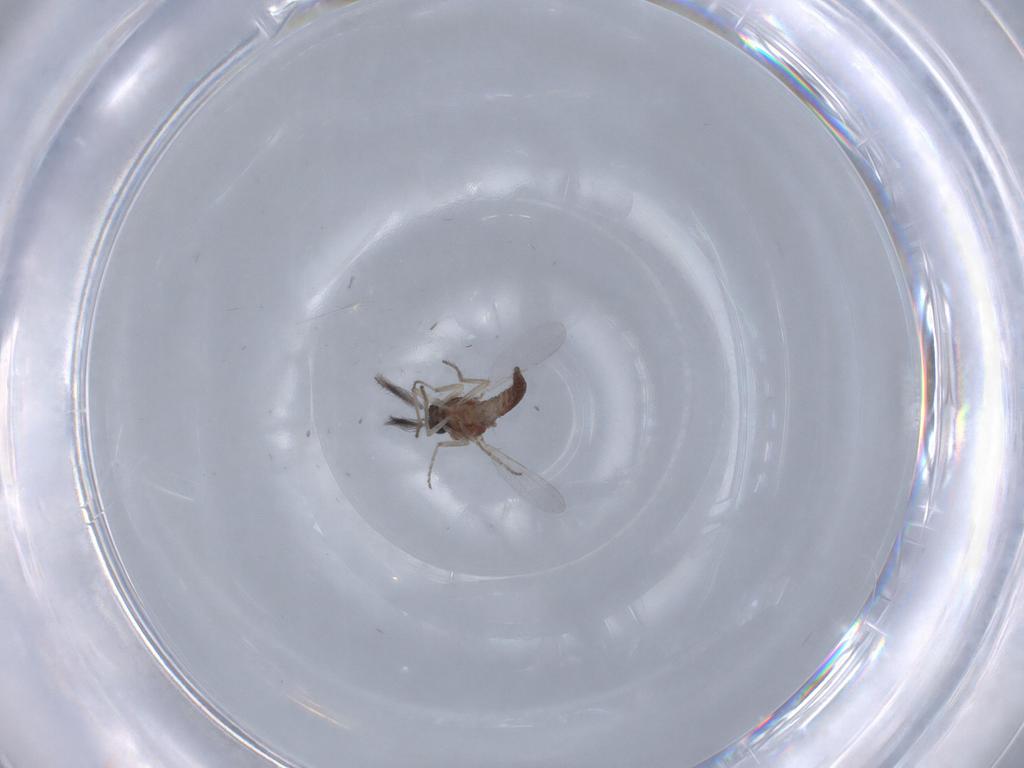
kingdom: Animalia
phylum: Arthropoda
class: Insecta
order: Diptera
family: Ceratopogonidae
